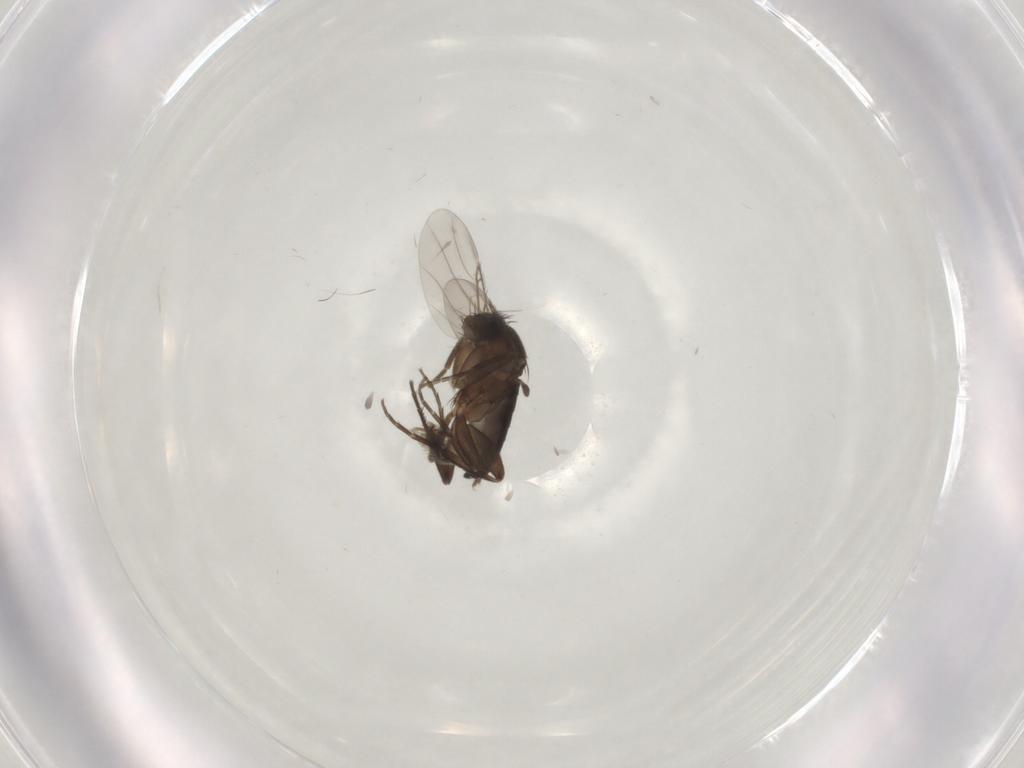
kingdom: Animalia
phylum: Arthropoda
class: Insecta
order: Diptera
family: Phoridae
